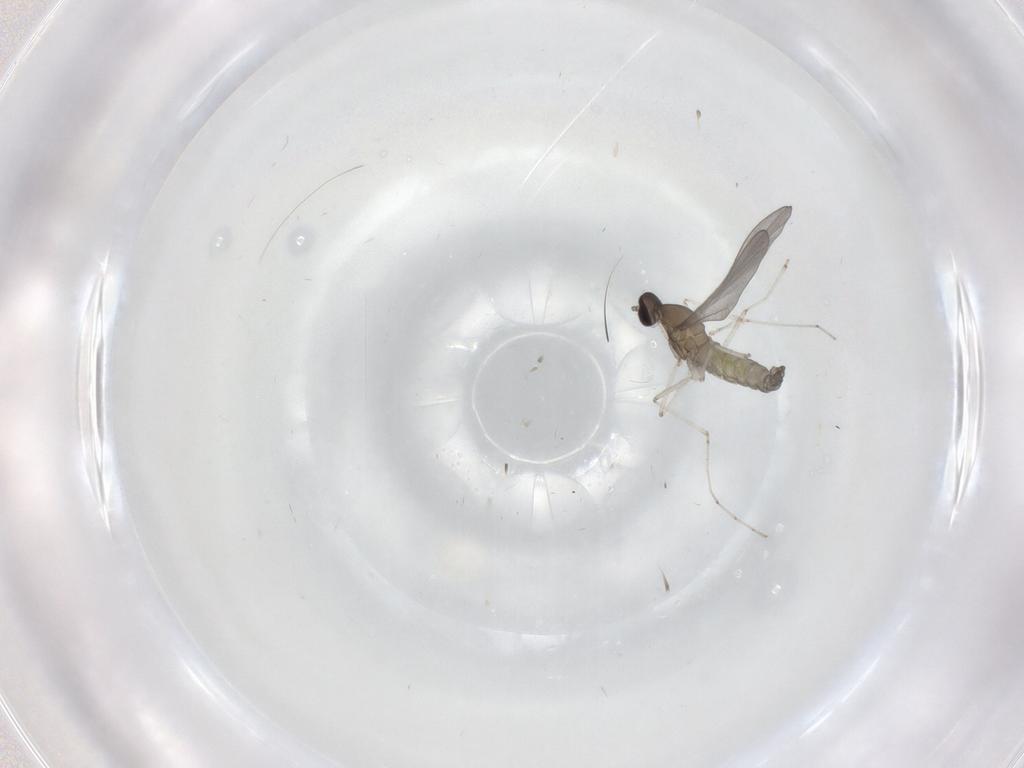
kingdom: Animalia
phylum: Arthropoda
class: Insecta
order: Diptera
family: Cecidomyiidae
